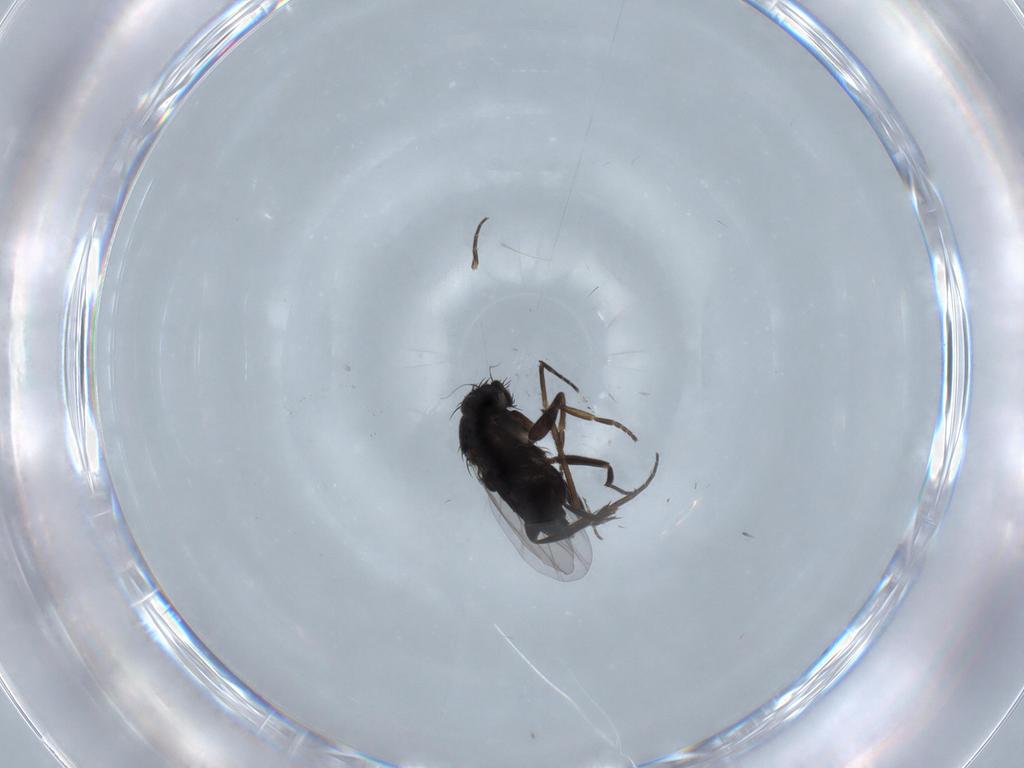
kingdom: Animalia
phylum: Arthropoda
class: Insecta
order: Diptera
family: Phoridae
